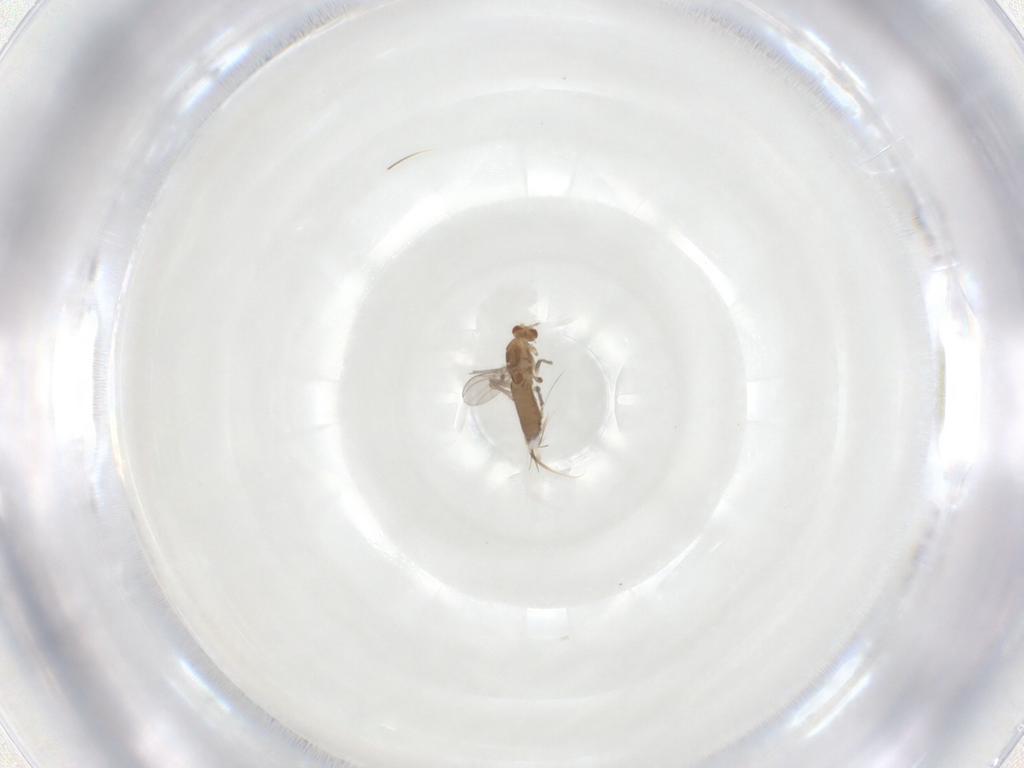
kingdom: Animalia
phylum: Arthropoda
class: Insecta
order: Diptera
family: Chironomidae
